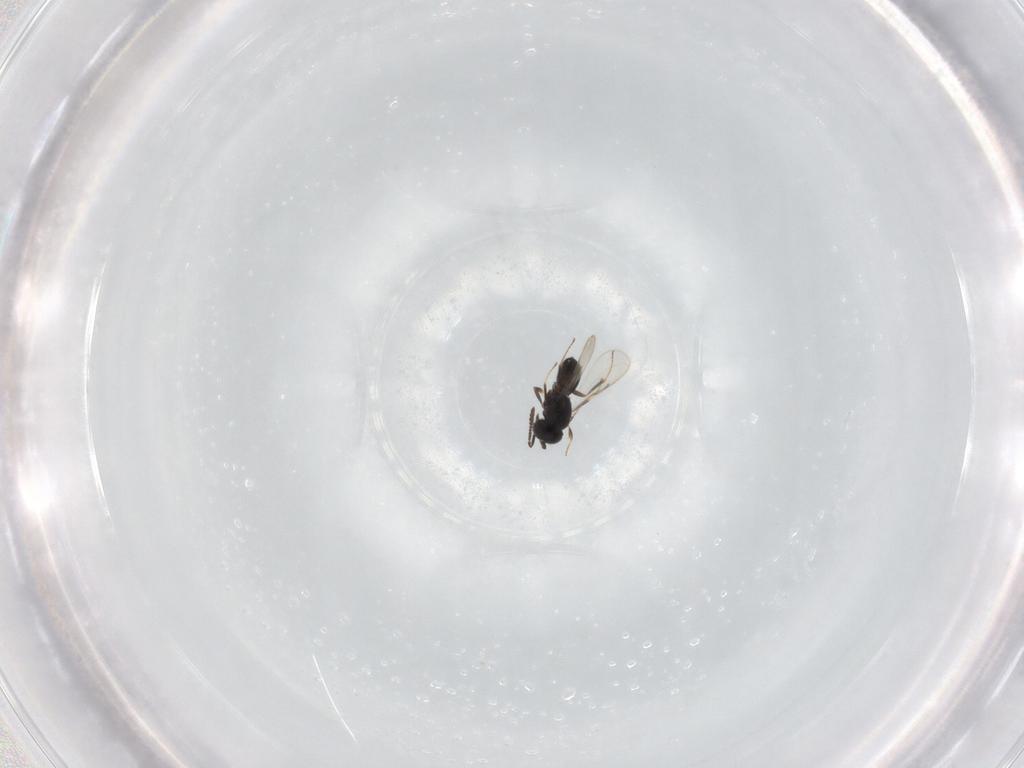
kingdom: Animalia
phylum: Arthropoda
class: Insecta
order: Hymenoptera
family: Scelionidae
